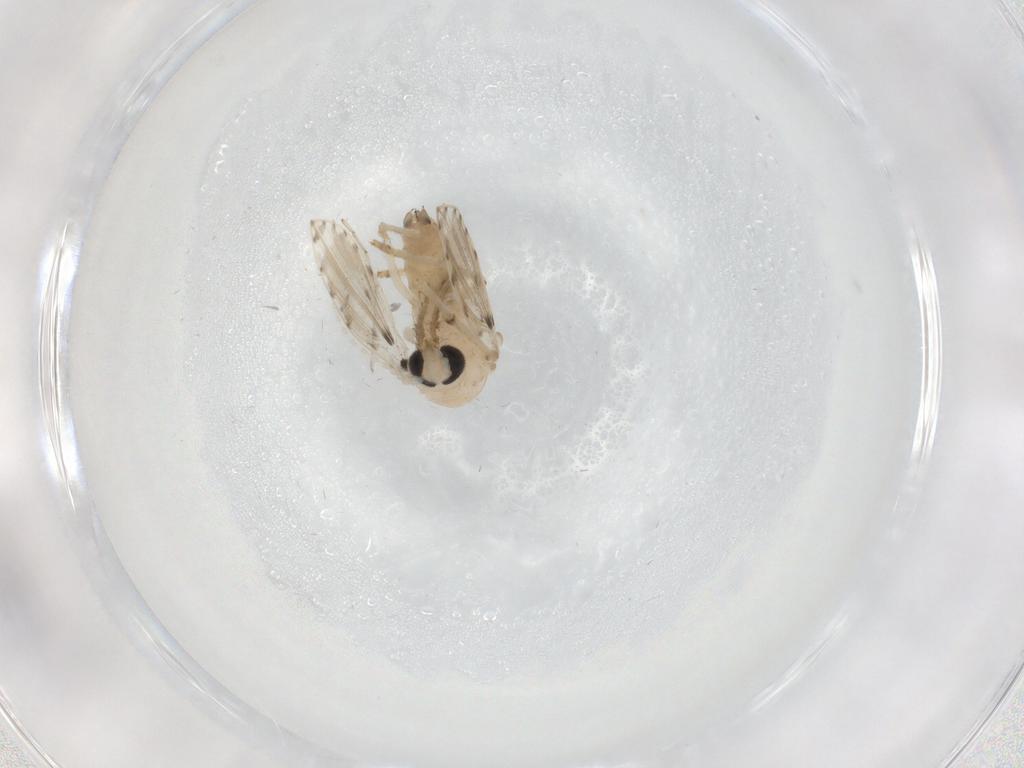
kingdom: Animalia
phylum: Arthropoda
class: Insecta
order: Diptera
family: Psychodidae
